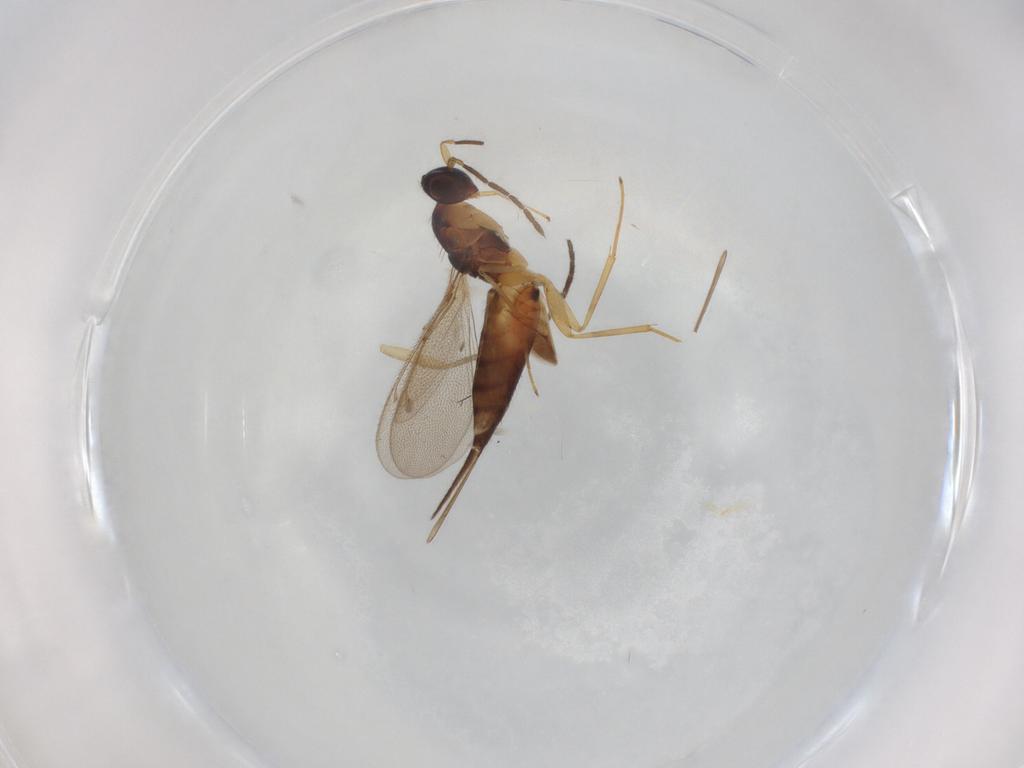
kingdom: Animalia
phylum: Arthropoda
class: Insecta
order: Hymenoptera
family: Eulophidae
